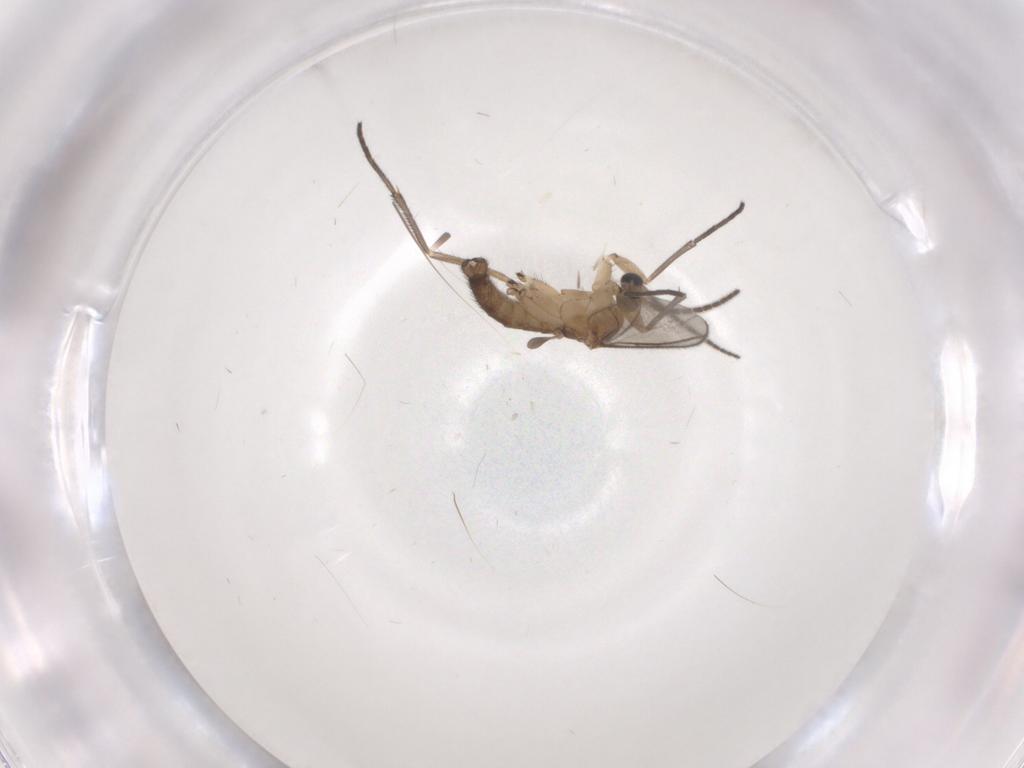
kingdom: Animalia
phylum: Arthropoda
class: Insecta
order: Diptera
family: Sciaridae
